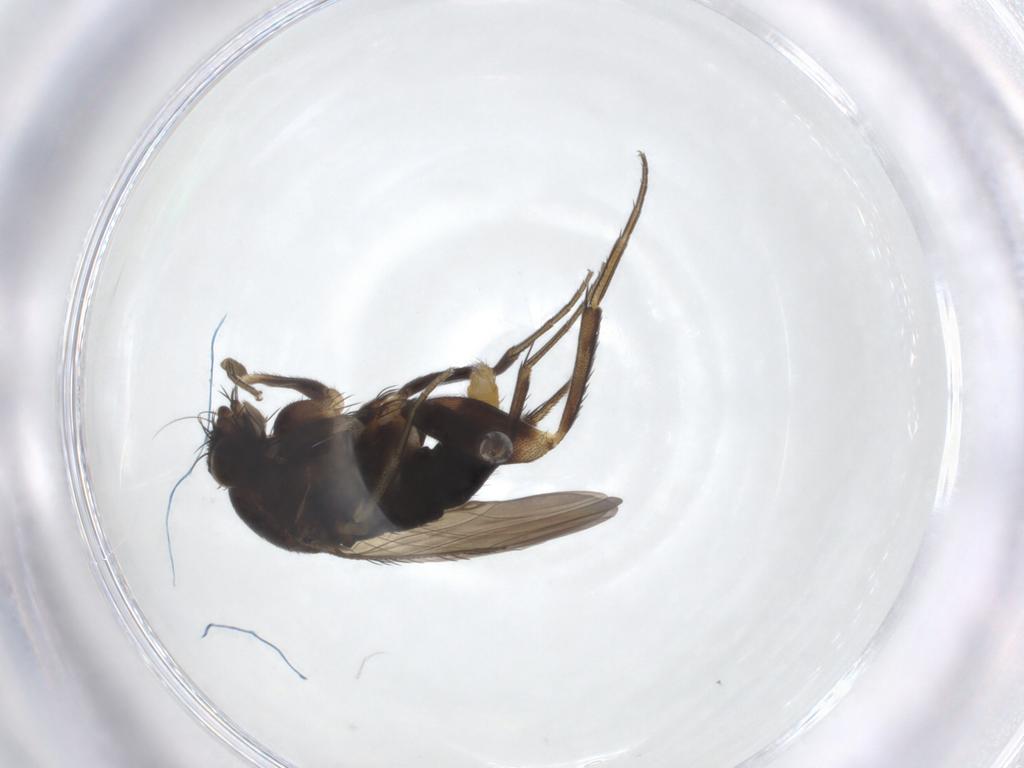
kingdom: Animalia
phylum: Arthropoda
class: Insecta
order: Diptera
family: Phoridae
